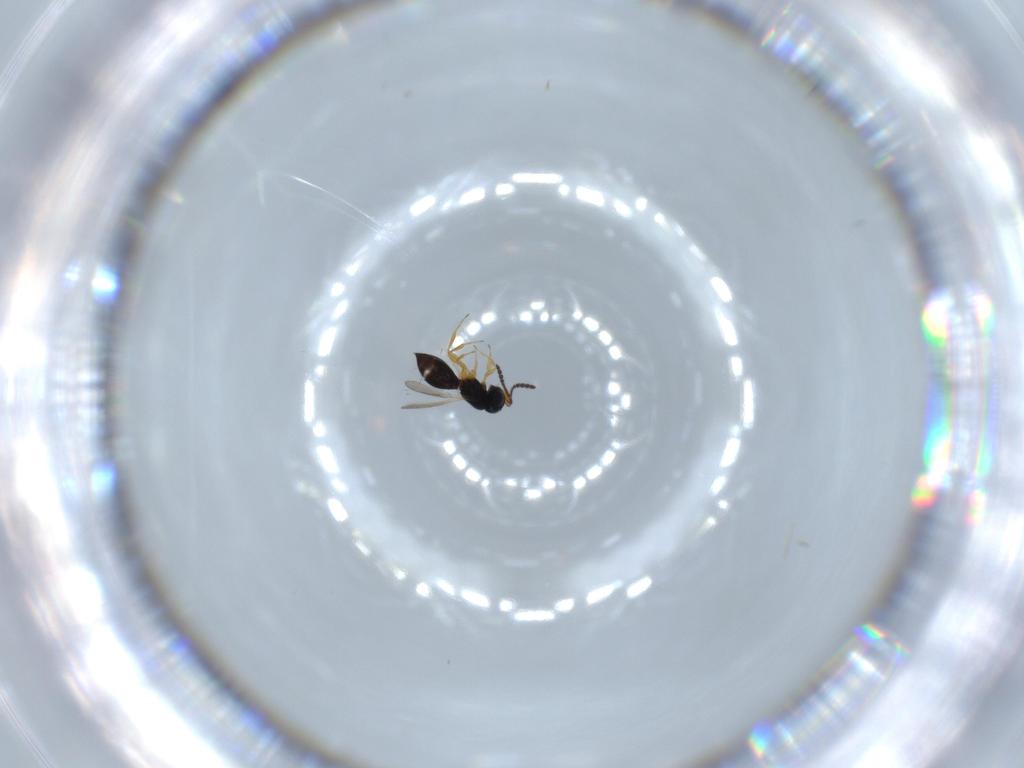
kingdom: Animalia
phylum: Arthropoda
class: Insecta
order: Hymenoptera
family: Scelionidae
